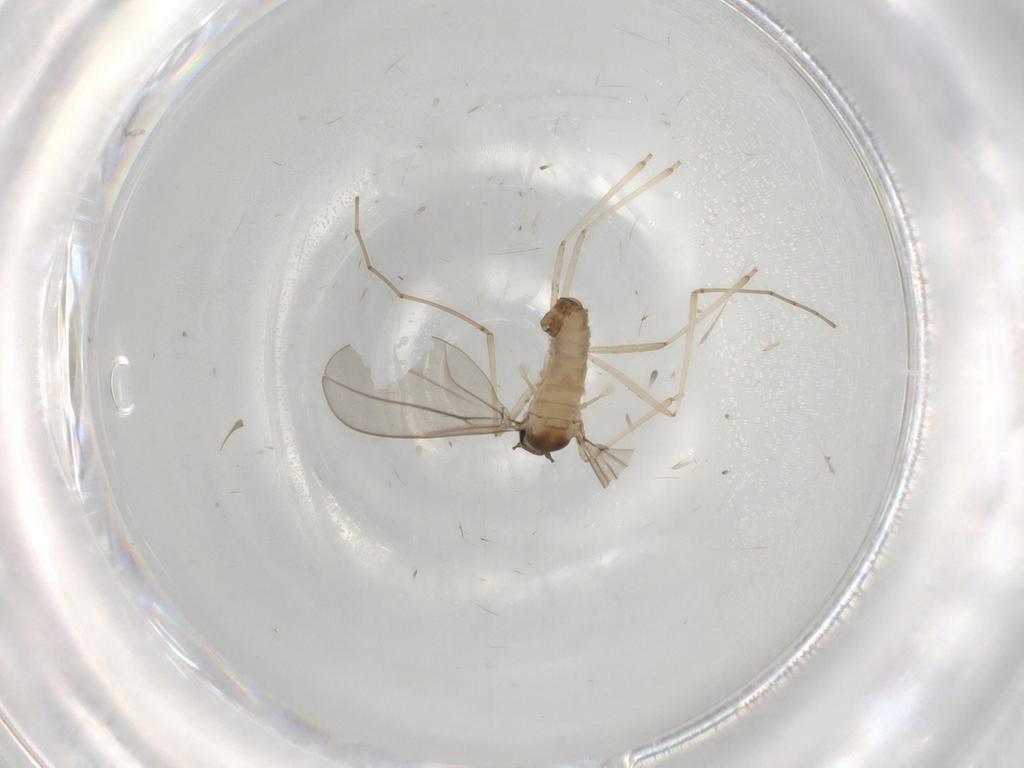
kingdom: Animalia
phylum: Arthropoda
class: Insecta
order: Diptera
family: Cecidomyiidae
